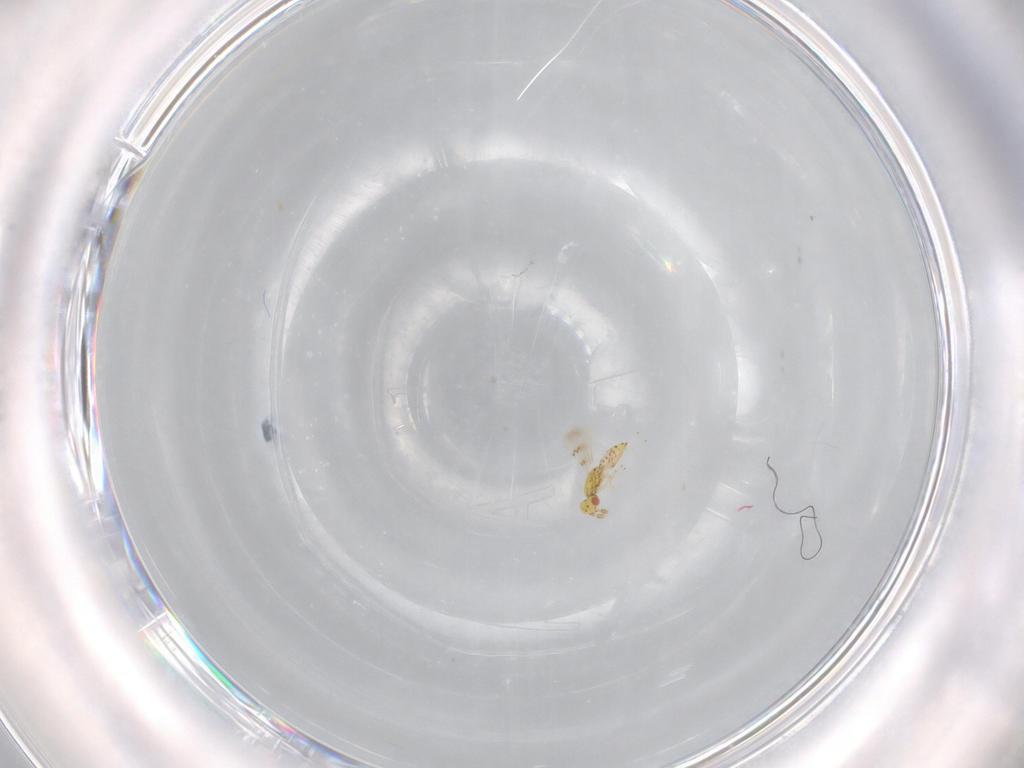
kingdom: Animalia
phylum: Arthropoda
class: Insecta
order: Hymenoptera
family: Eulophidae
